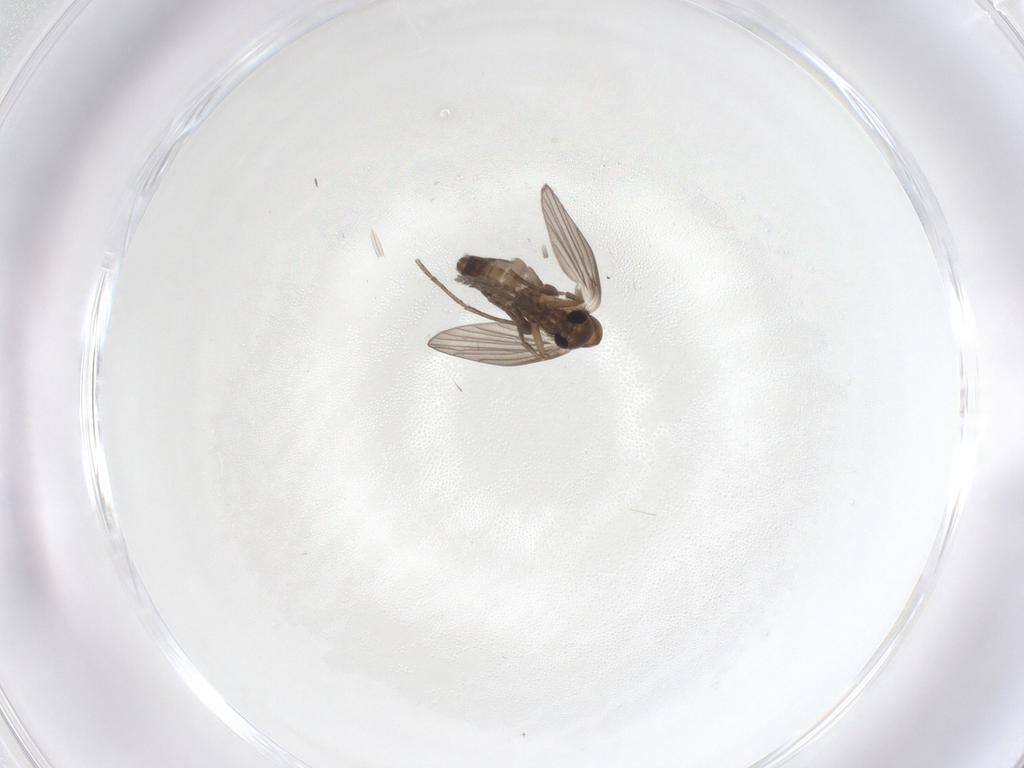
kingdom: Animalia
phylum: Arthropoda
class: Insecta
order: Diptera
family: Psychodidae
